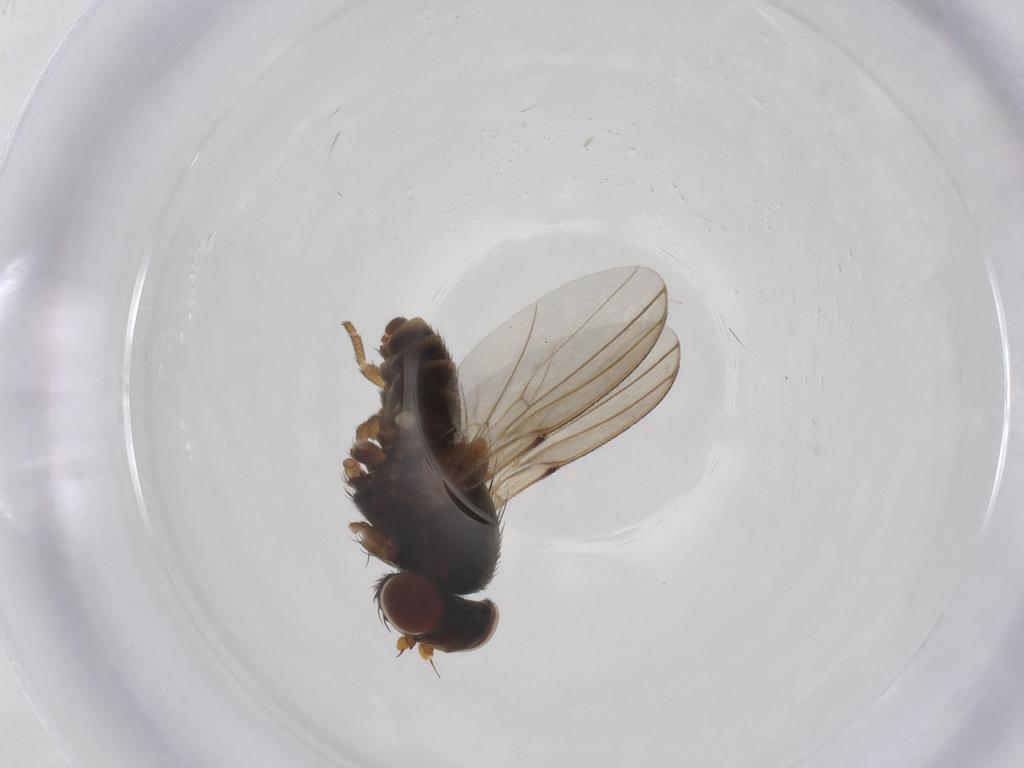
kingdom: Animalia
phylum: Arthropoda
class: Insecta
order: Diptera
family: Odiniidae
